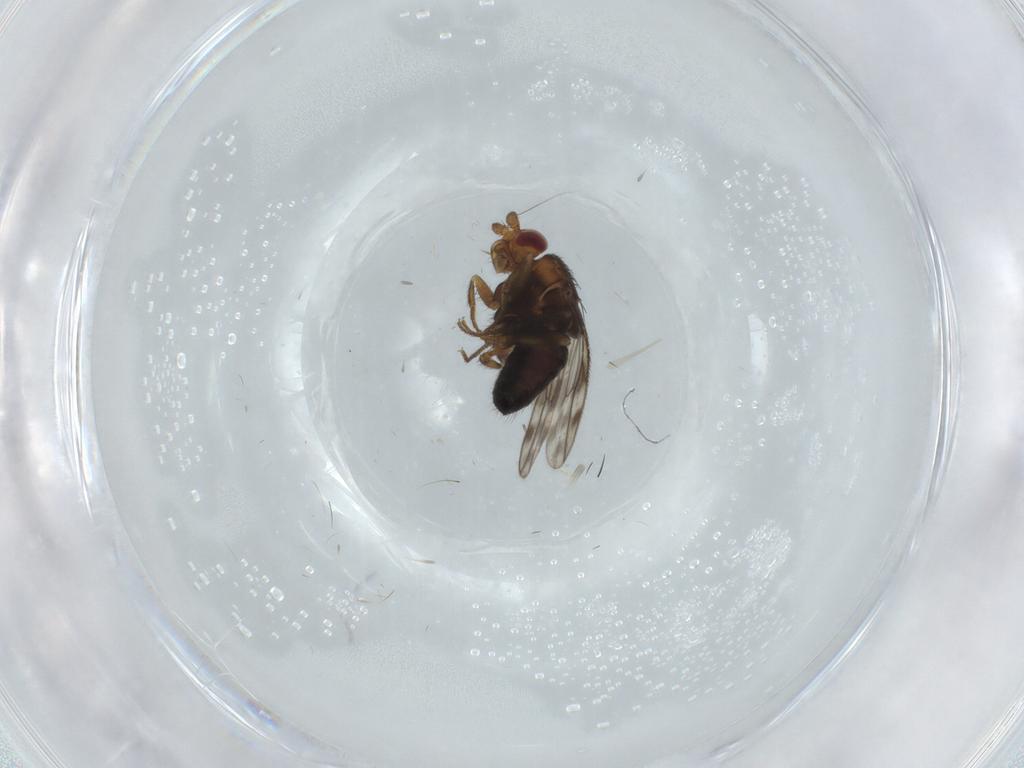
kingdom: Animalia
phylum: Arthropoda
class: Insecta
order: Diptera
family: Sphaeroceridae
